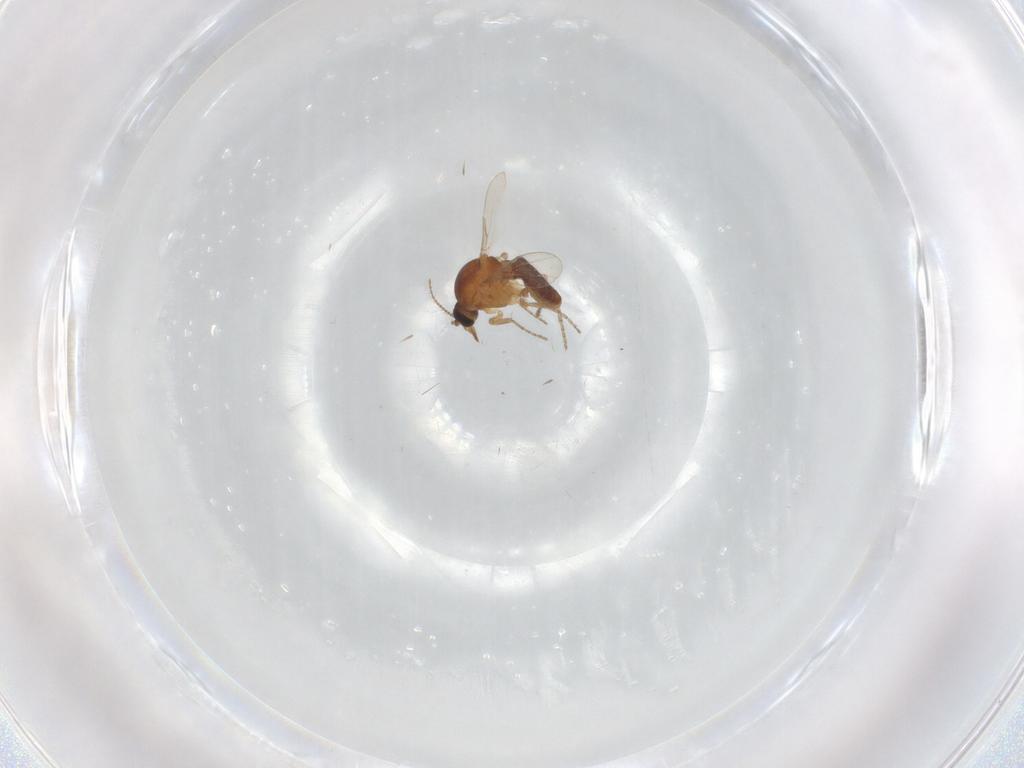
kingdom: Animalia
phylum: Arthropoda
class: Insecta
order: Diptera
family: Ceratopogonidae
